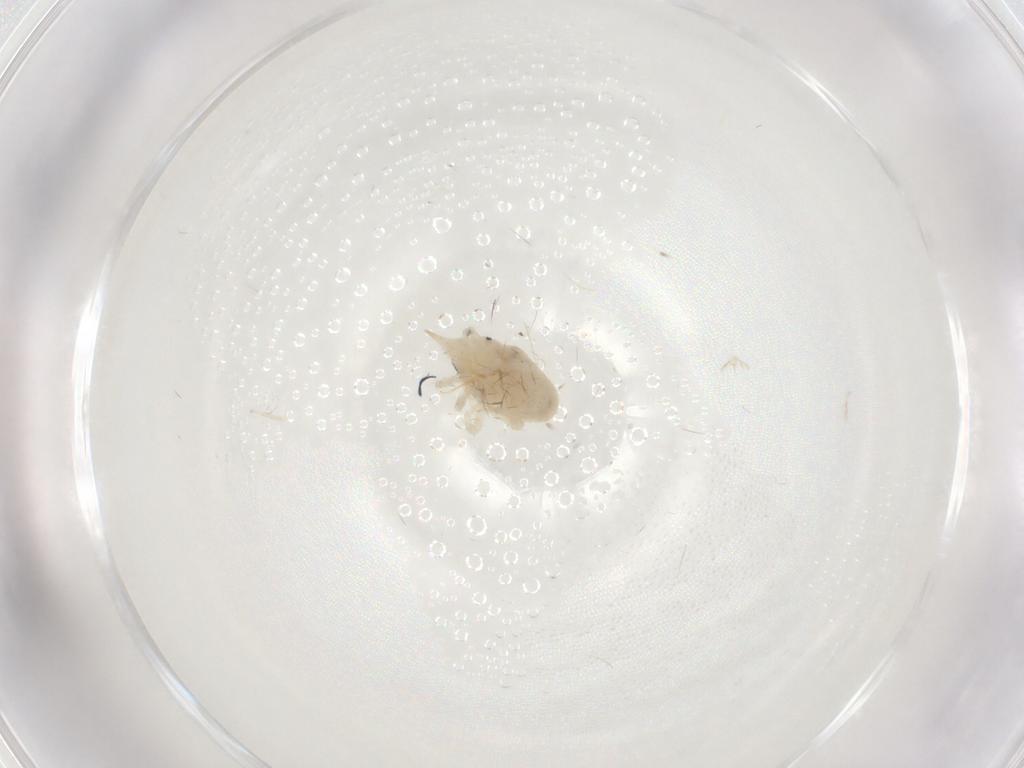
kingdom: Animalia
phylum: Arthropoda
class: Arachnida
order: Trombidiformes
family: Bdellidae
